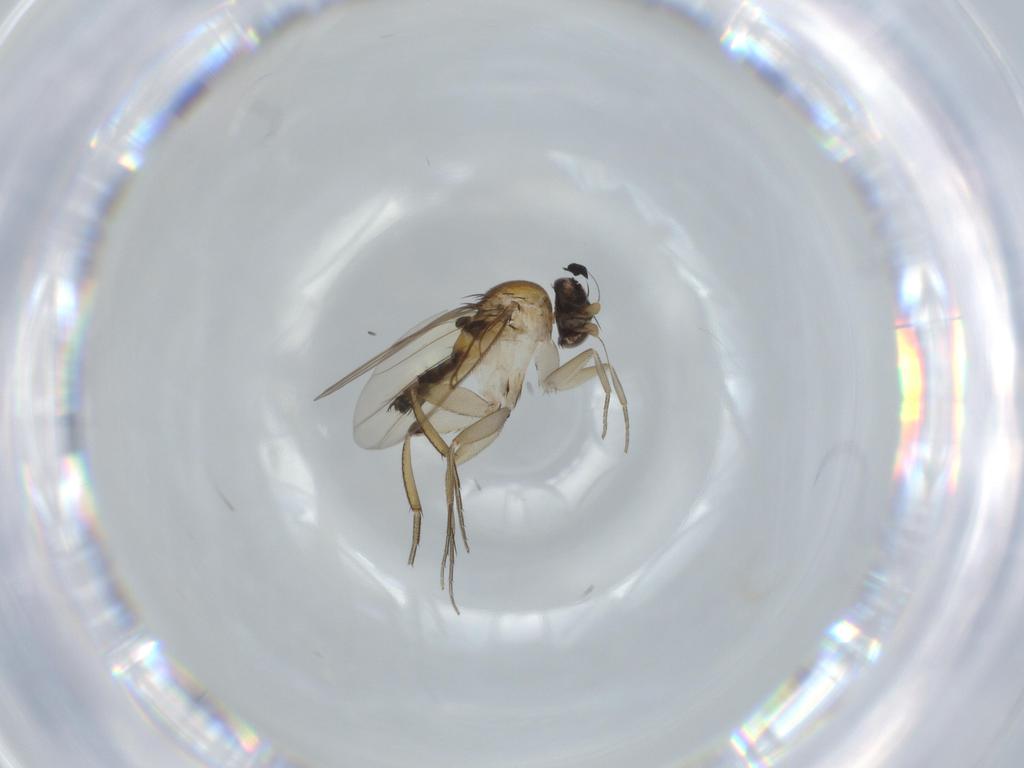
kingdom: Animalia
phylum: Arthropoda
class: Insecta
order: Diptera
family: Phoridae
